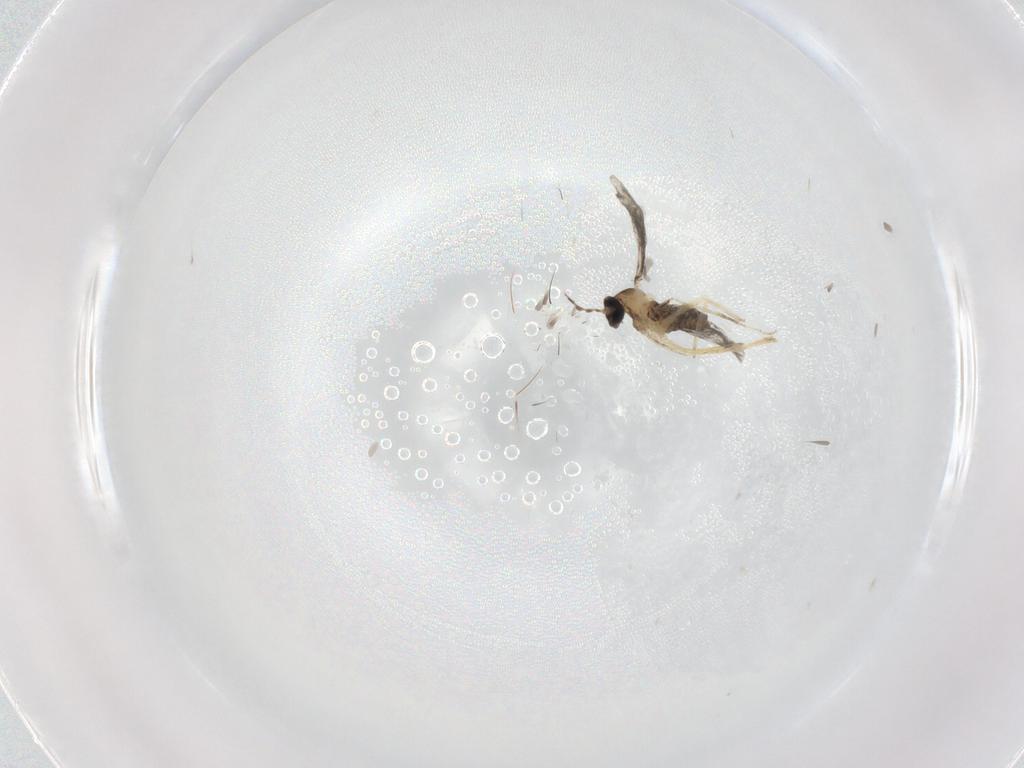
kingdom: Animalia
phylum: Arthropoda
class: Insecta
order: Diptera
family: Cecidomyiidae
